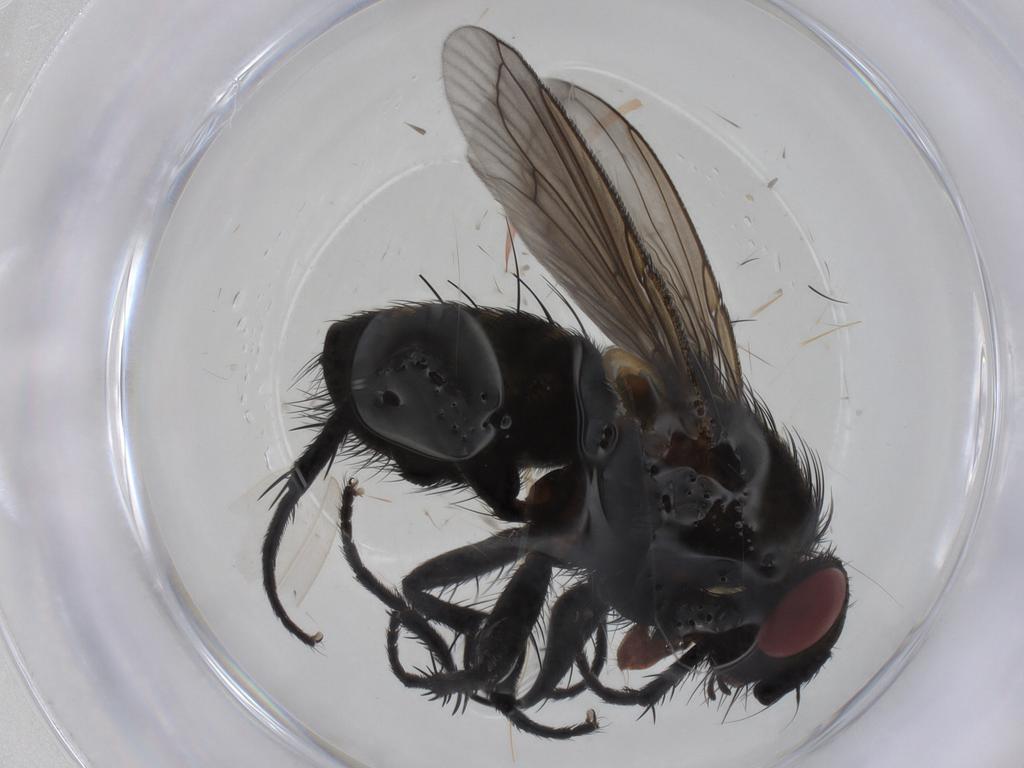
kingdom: Animalia
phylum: Arthropoda
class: Insecta
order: Diptera
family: Tachinidae
